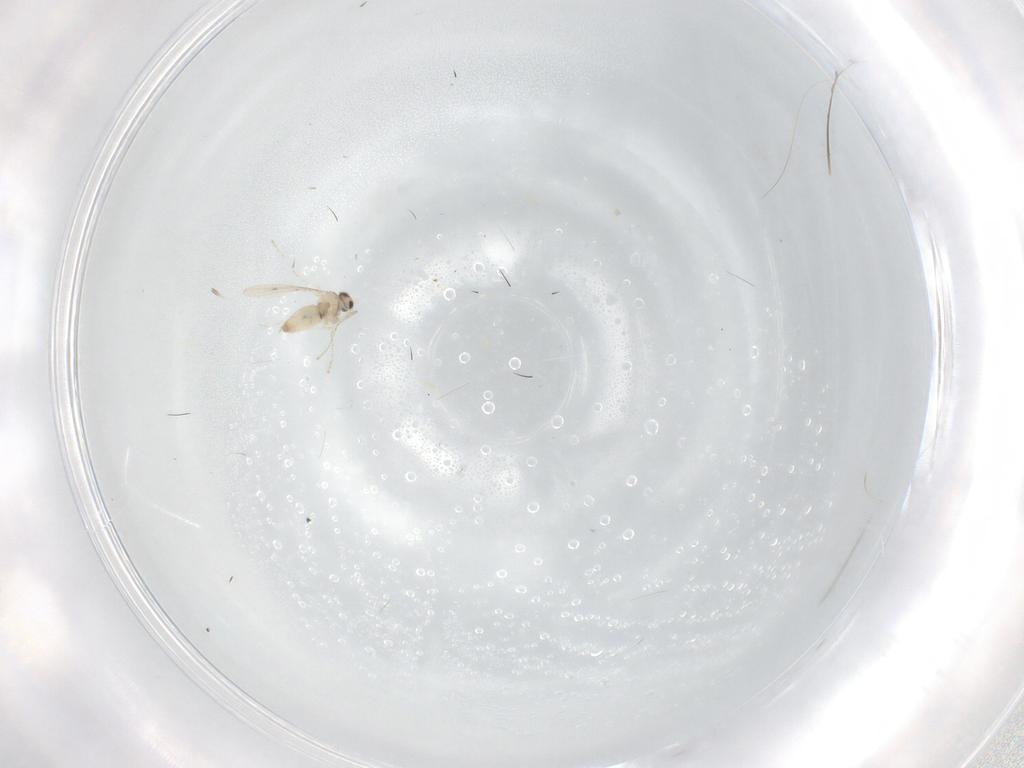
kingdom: Animalia
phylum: Arthropoda
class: Insecta
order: Diptera
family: Cecidomyiidae
